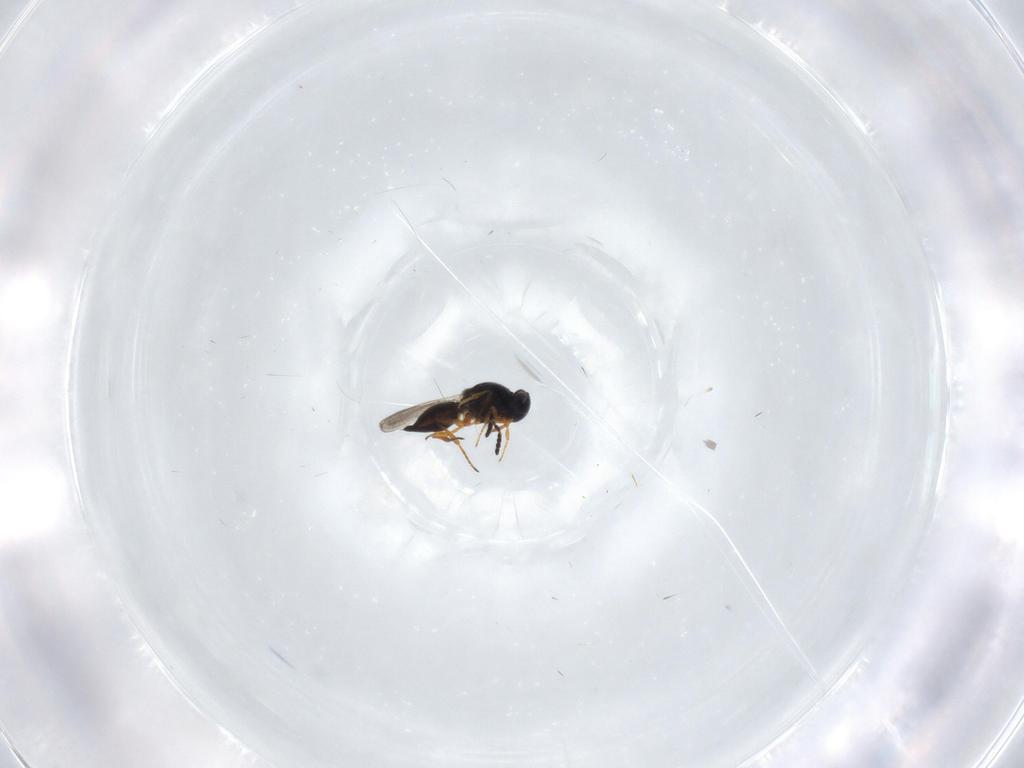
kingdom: Animalia
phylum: Arthropoda
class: Insecta
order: Hymenoptera
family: Platygastridae
